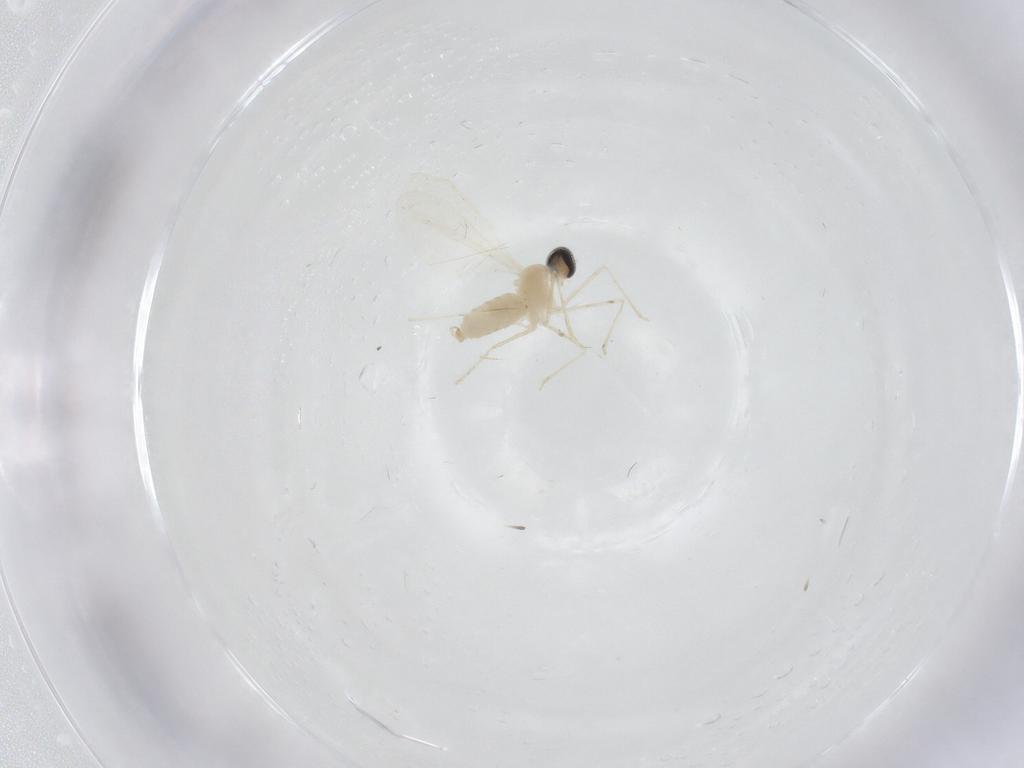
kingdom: Animalia
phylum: Arthropoda
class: Insecta
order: Diptera
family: Cecidomyiidae
